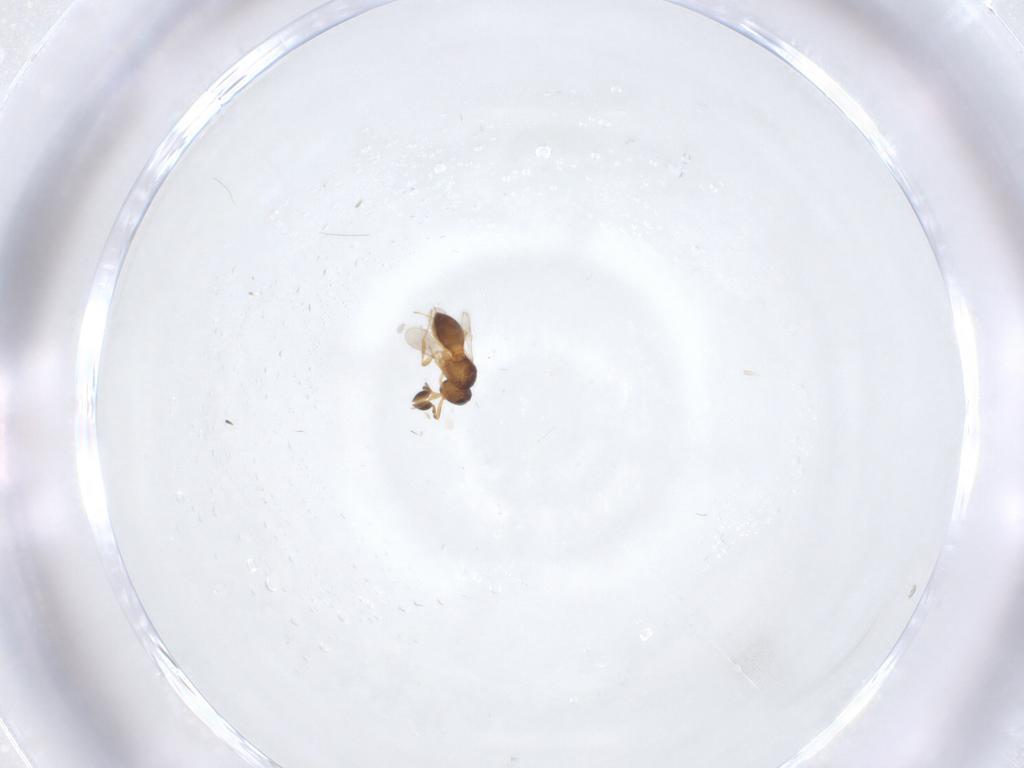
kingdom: Animalia
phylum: Arthropoda
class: Insecta
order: Hymenoptera
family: Scelionidae
